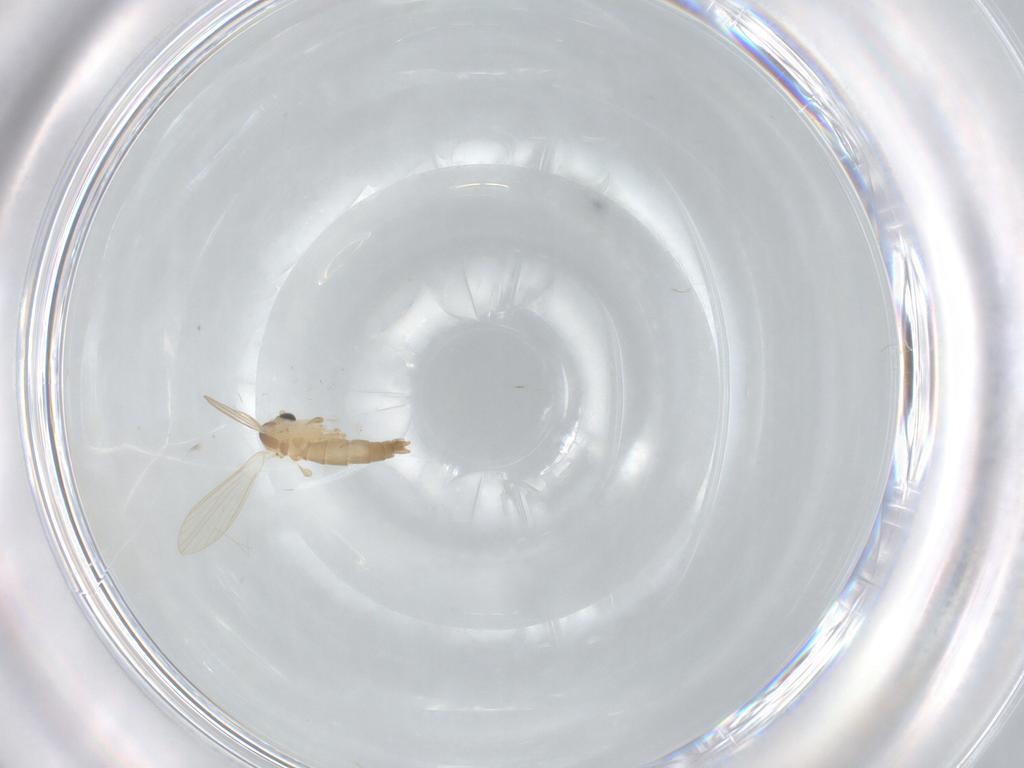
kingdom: Animalia
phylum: Arthropoda
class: Insecta
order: Diptera
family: Psychodidae
